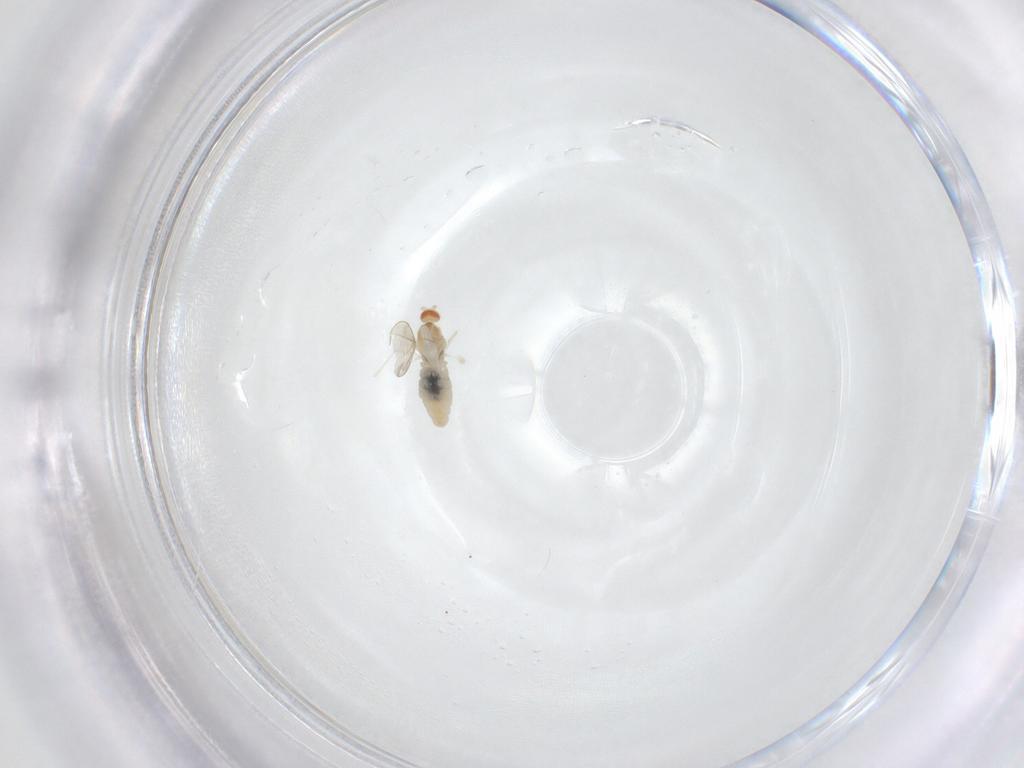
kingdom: Animalia
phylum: Arthropoda
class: Insecta
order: Diptera
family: Cecidomyiidae
